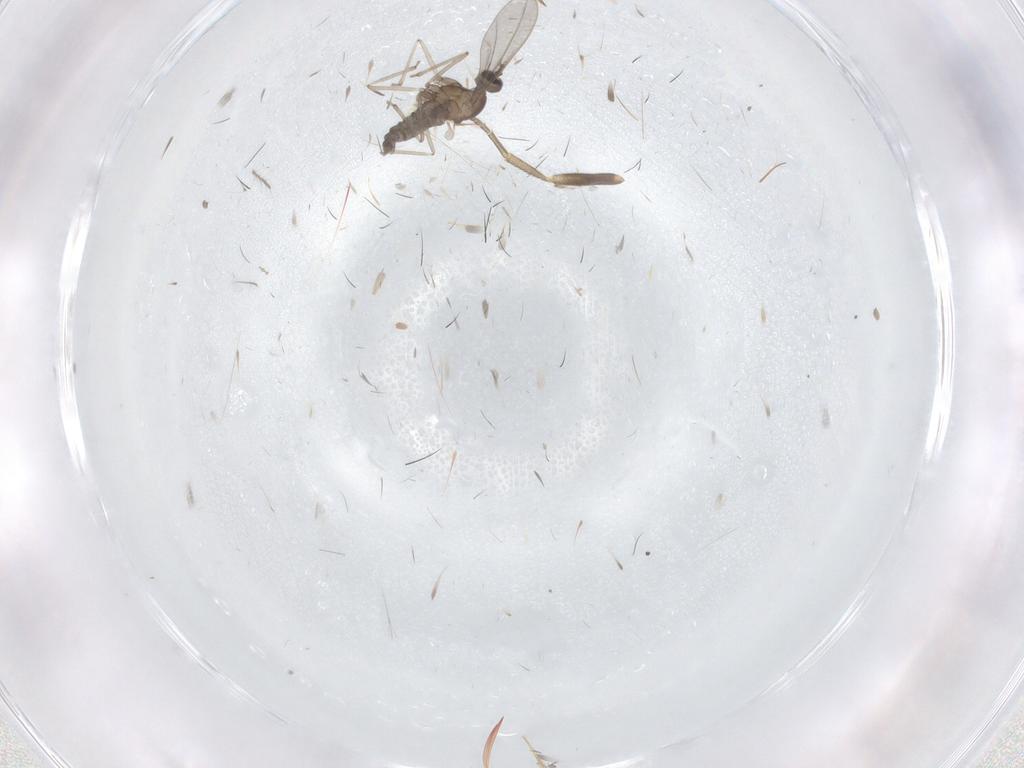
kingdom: Animalia
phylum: Arthropoda
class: Insecta
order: Diptera
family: Cecidomyiidae
